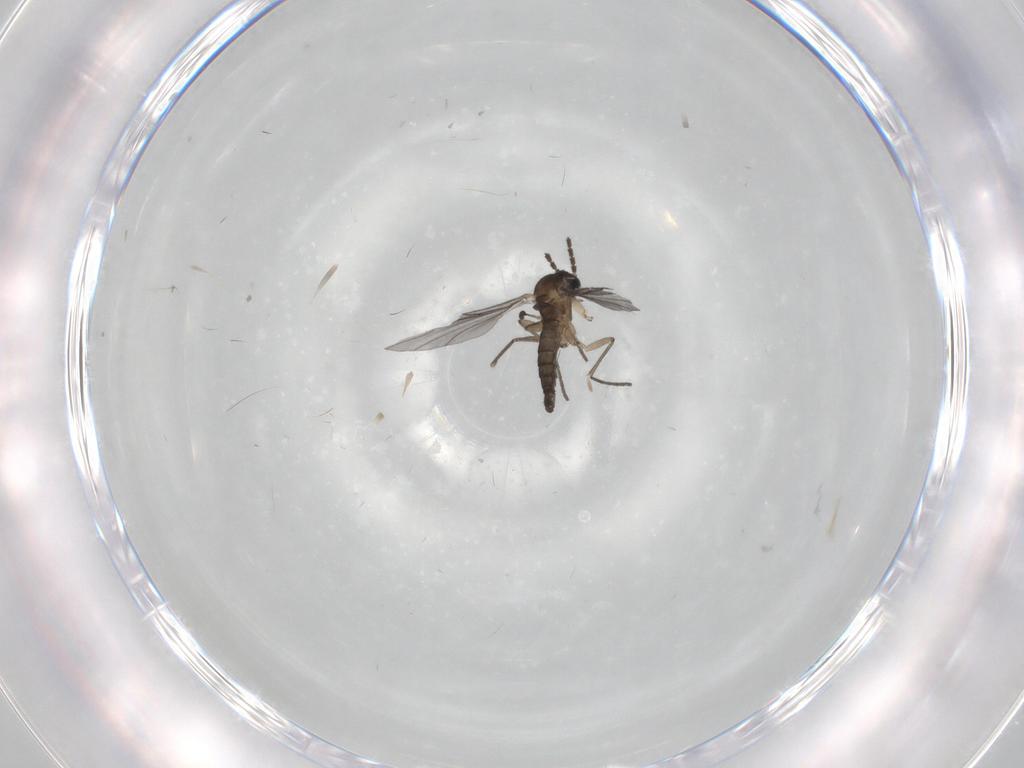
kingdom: Animalia
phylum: Arthropoda
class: Insecta
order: Diptera
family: Sciaridae
